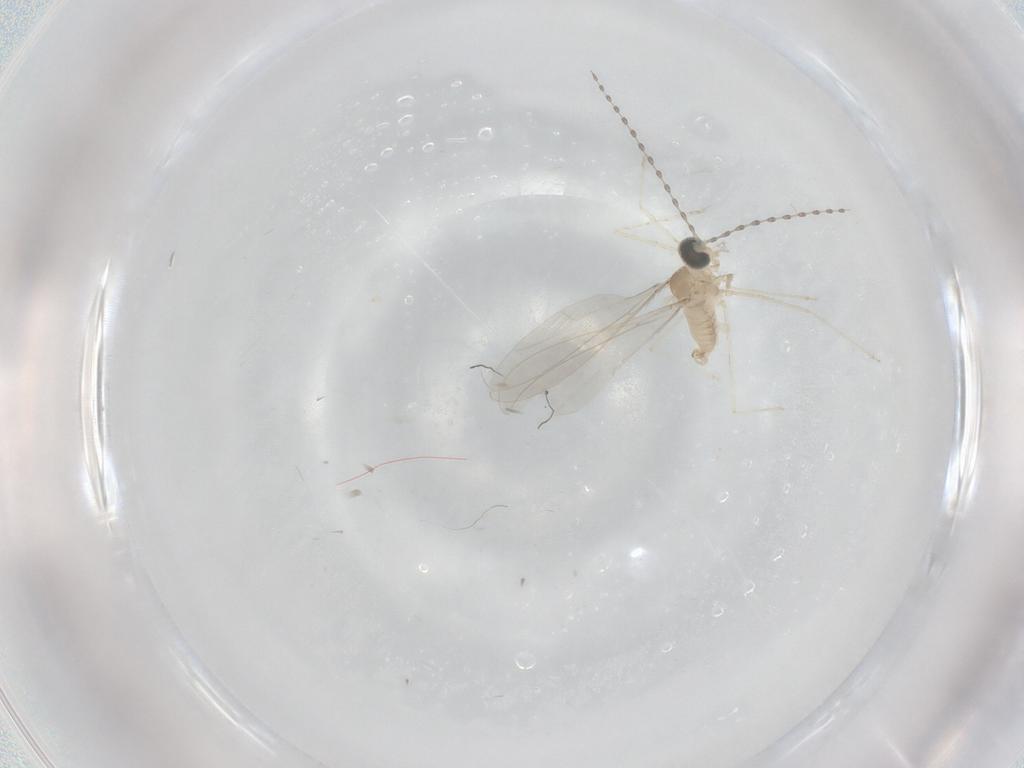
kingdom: Animalia
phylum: Arthropoda
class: Insecta
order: Diptera
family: Cecidomyiidae
